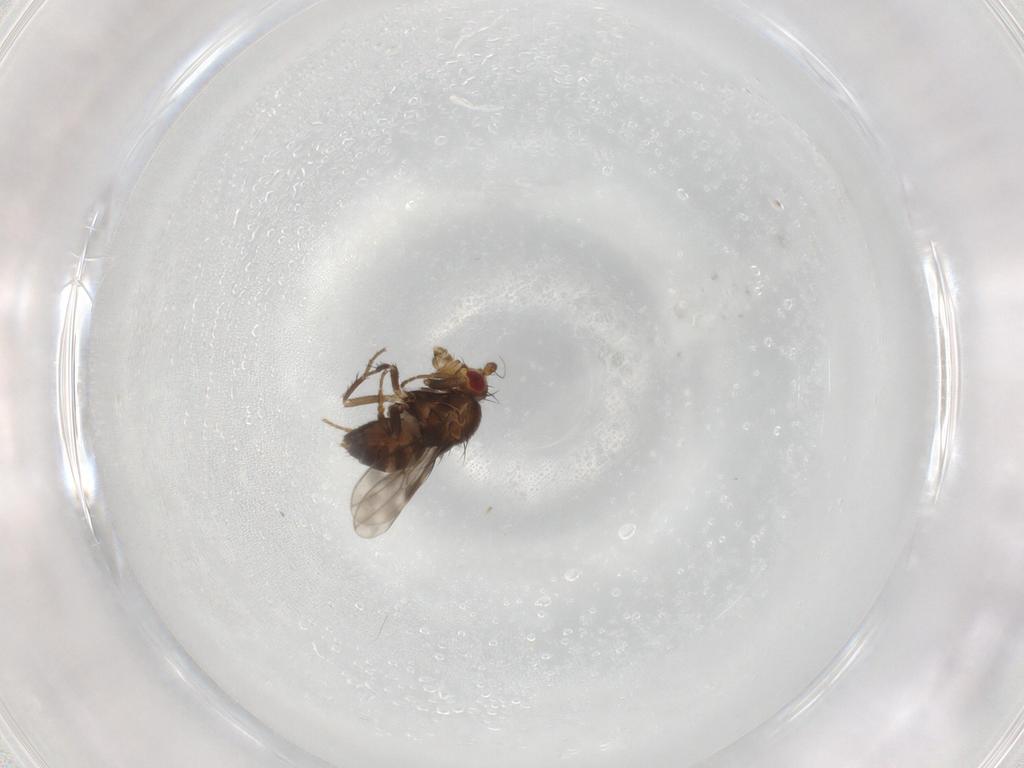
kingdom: Animalia
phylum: Arthropoda
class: Insecta
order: Diptera
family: Sphaeroceridae
